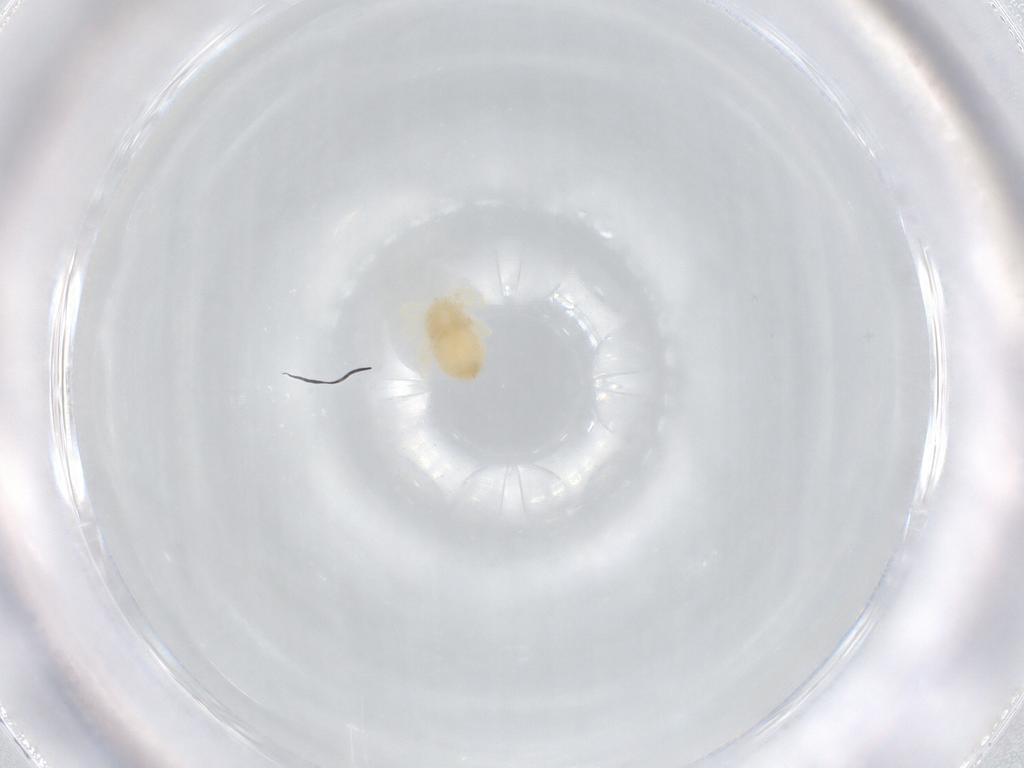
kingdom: Animalia
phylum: Arthropoda
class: Arachnida
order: Trombidiformes
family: Anystidae
